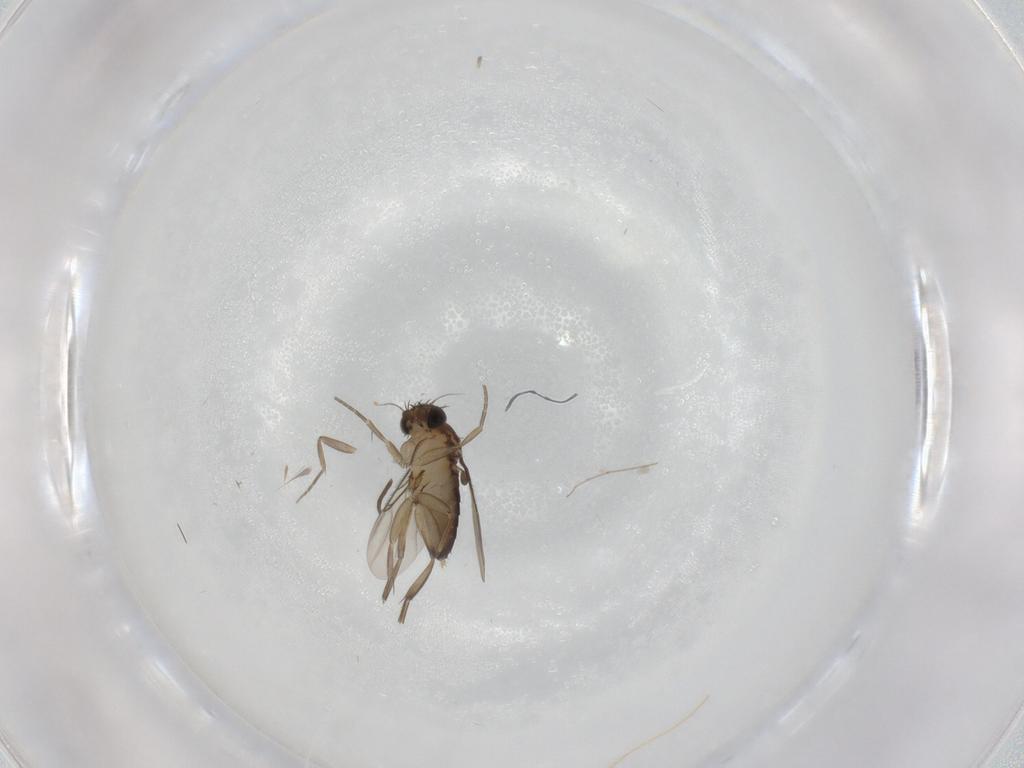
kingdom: Animalia
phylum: Arthropoda
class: Insecta
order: Diptera
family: Phoridae
